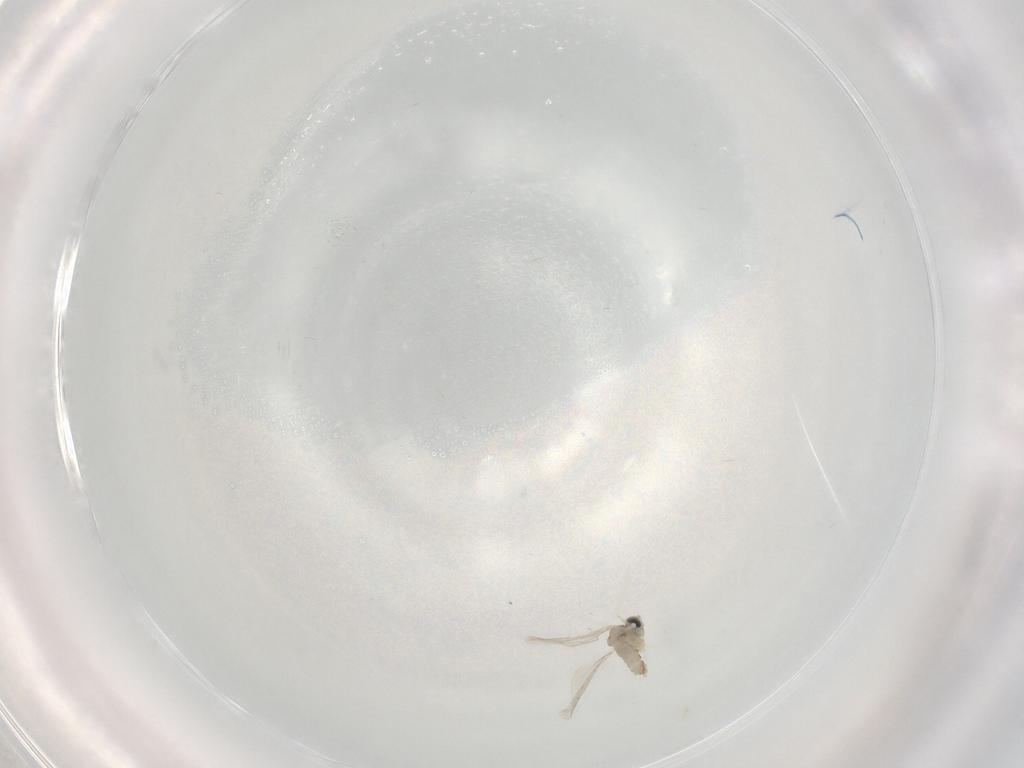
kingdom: Animalia
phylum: Arthropoda
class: Insecta
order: Diptera
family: Cecidomyiidae
